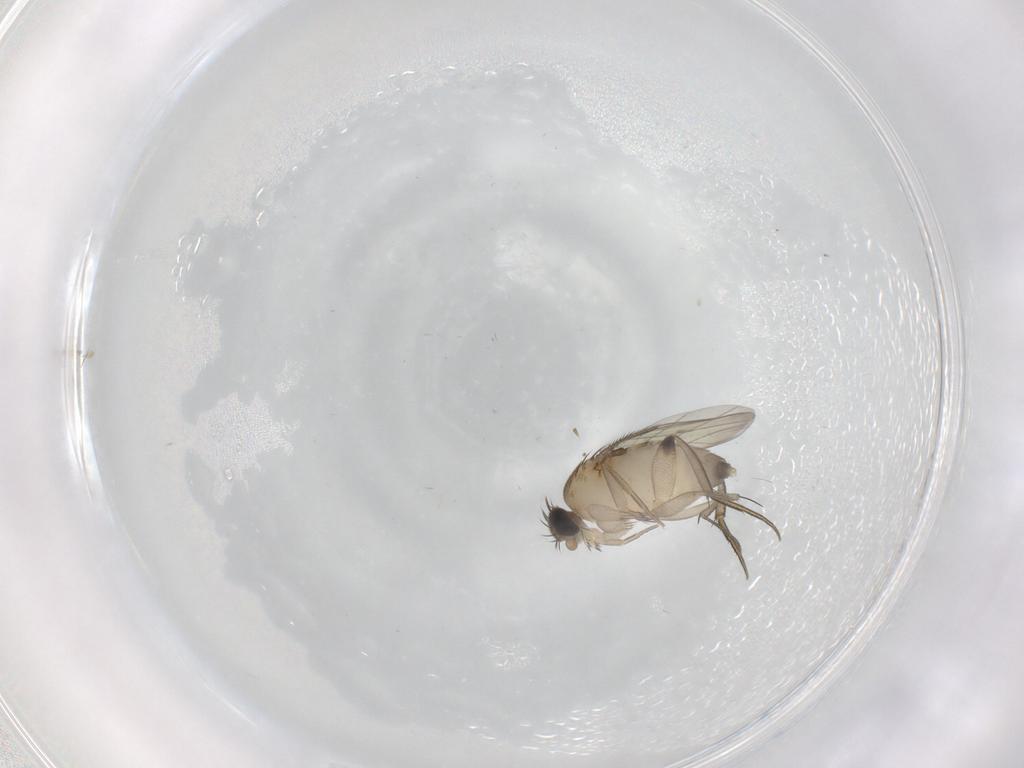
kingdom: Animalia
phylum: Arthropoda
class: Insecta
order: Diptera
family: Phoridae
